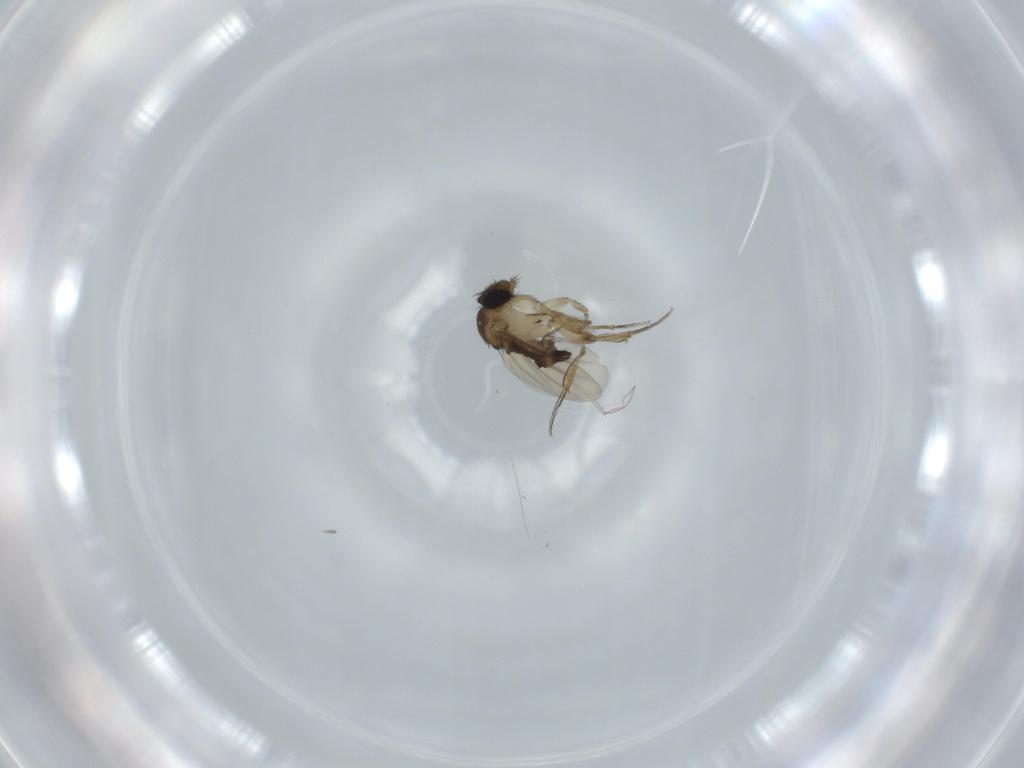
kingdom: Animalia
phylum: Arthropoda
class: Insecta
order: Diptera
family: Phoridae
